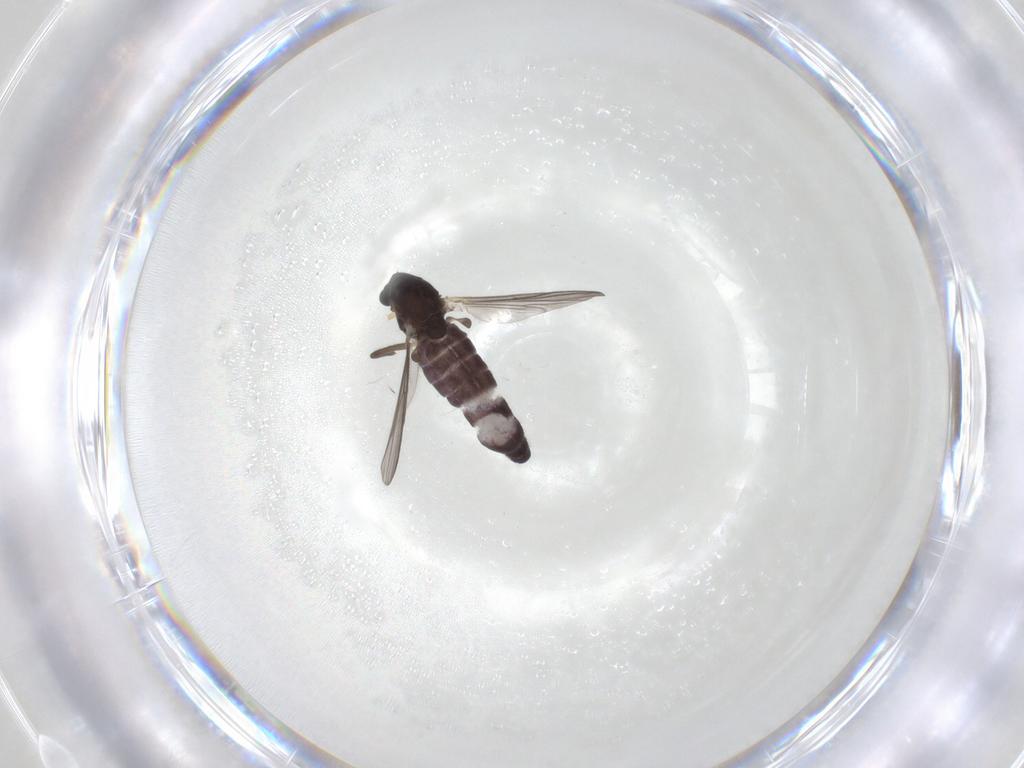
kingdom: Animalia
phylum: Arthropoda
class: Insecta
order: Diptera
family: Chironomidae
